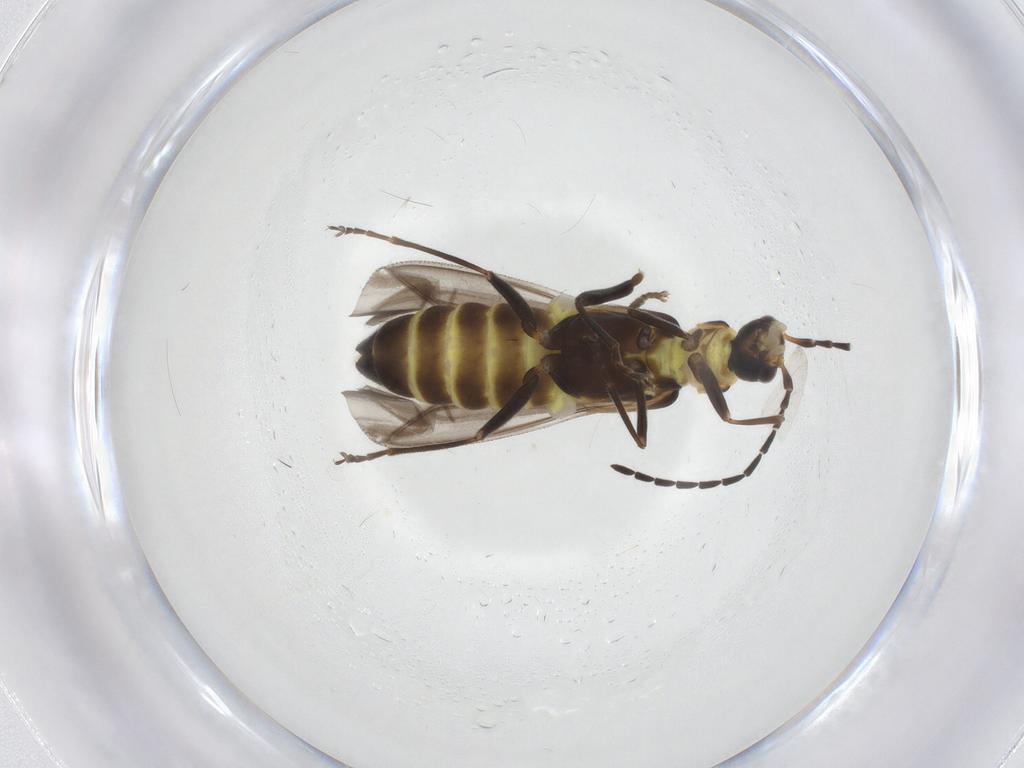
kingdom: Animalia
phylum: Arthropoda
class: Insecta
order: Coleoptera
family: Cantharidae
